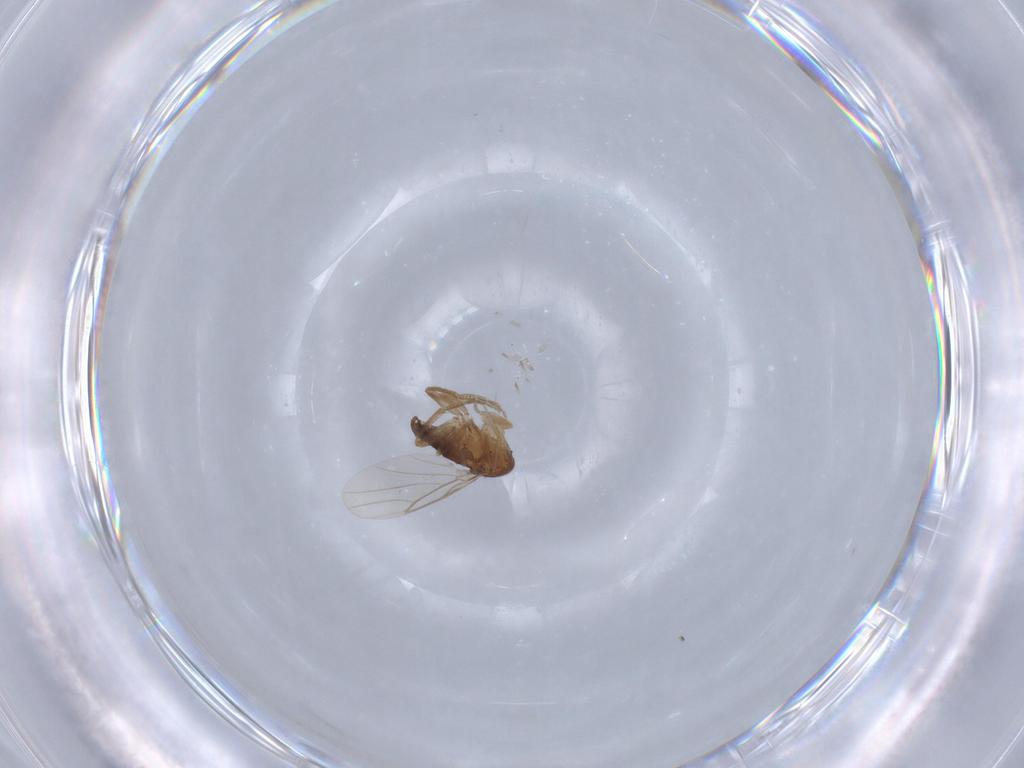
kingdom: Animalia
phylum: Arthropoda
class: Insecta
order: Diptera
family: Phoridae
